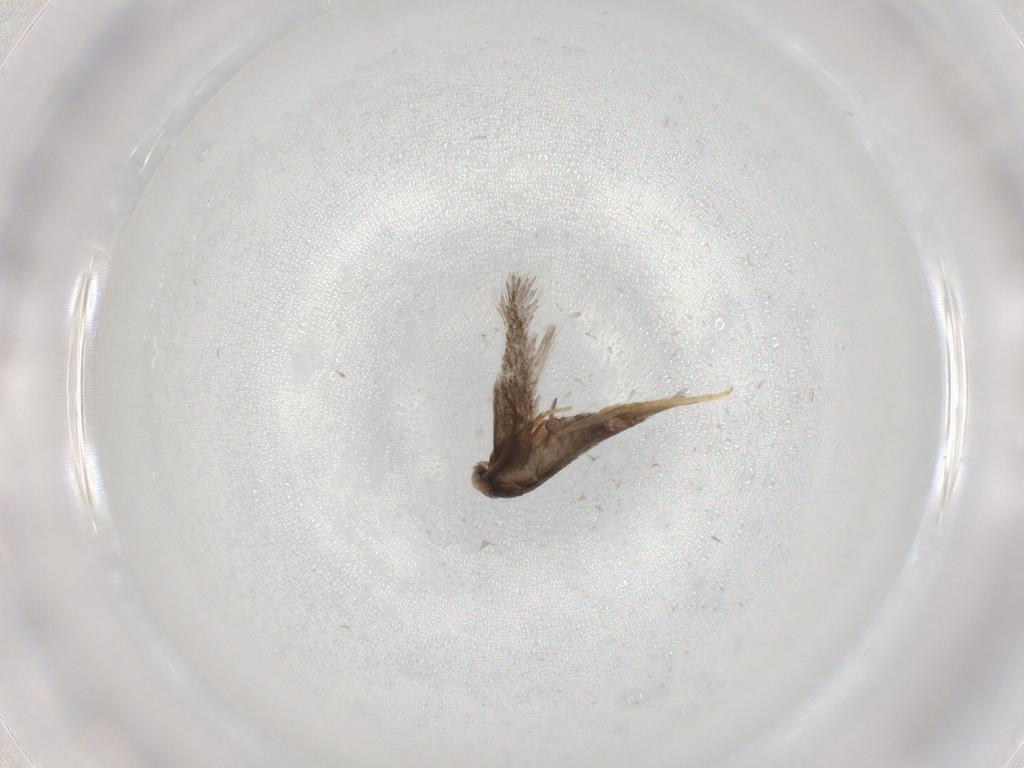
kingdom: Animalia
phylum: Arthropoda
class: Insecta
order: Lepidoptera
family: Nepticulidae
